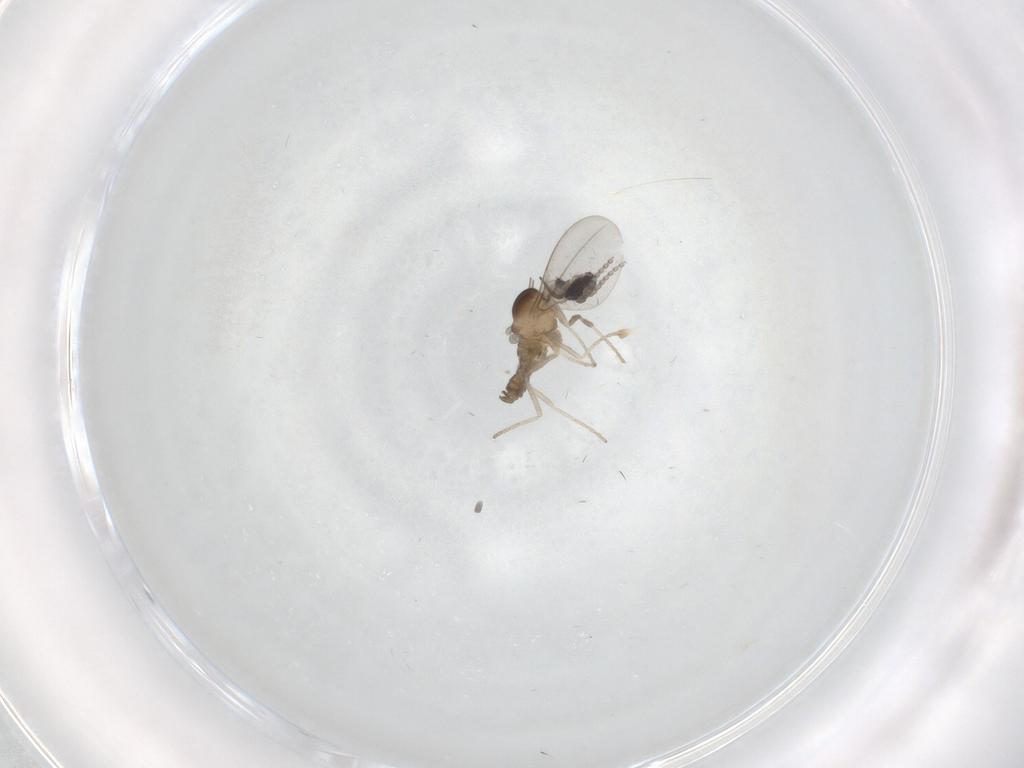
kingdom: Animalia
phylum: Arthropoda
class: Insecta
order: Diptera
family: Cecidomyiidae
